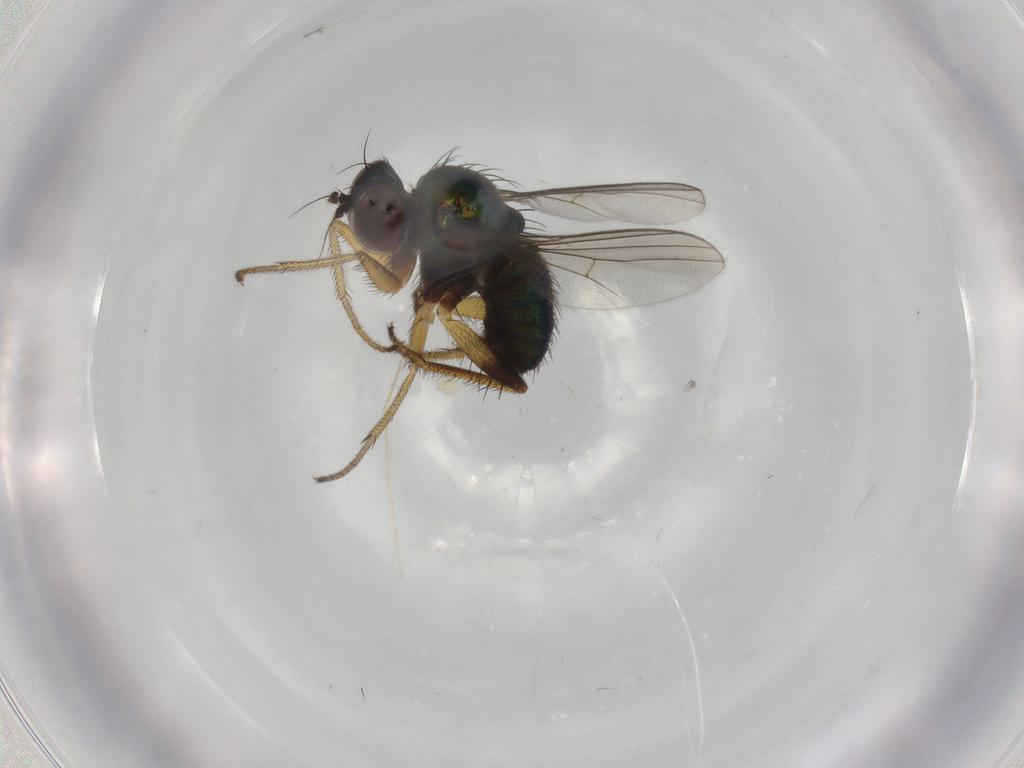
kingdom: Animalia
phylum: Arthropoda
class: Insecta
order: Diptera
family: Dolichopodidae
